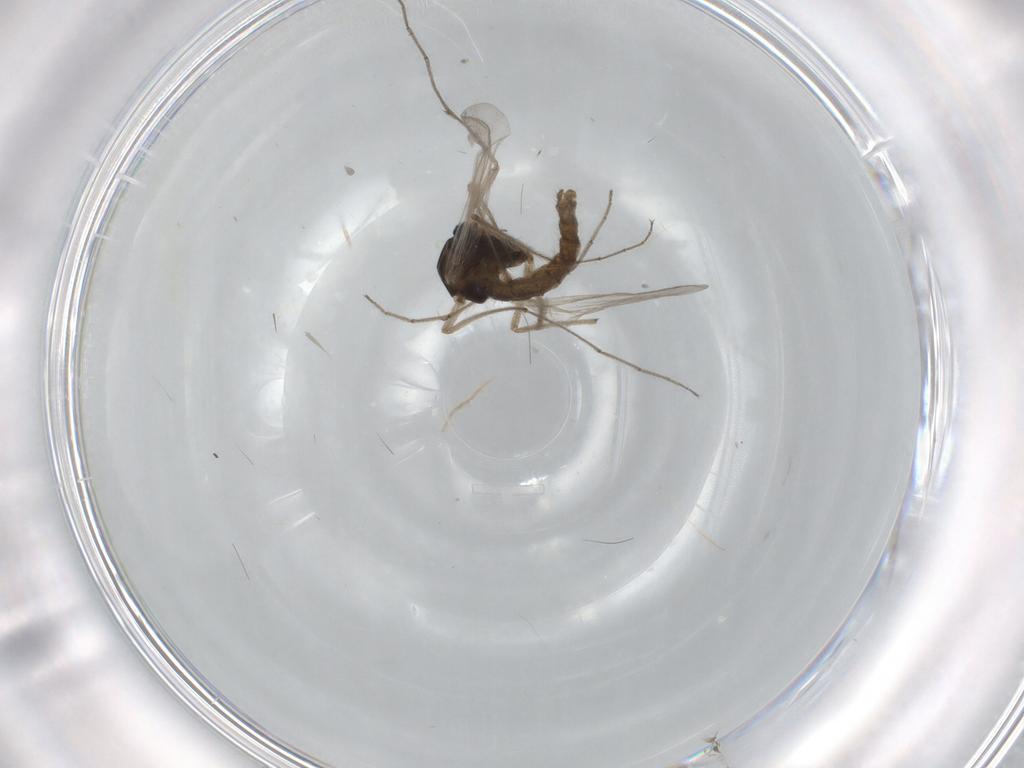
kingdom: Animalia
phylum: Arthropoda
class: Insecta
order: Diptera
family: Chironomidae
